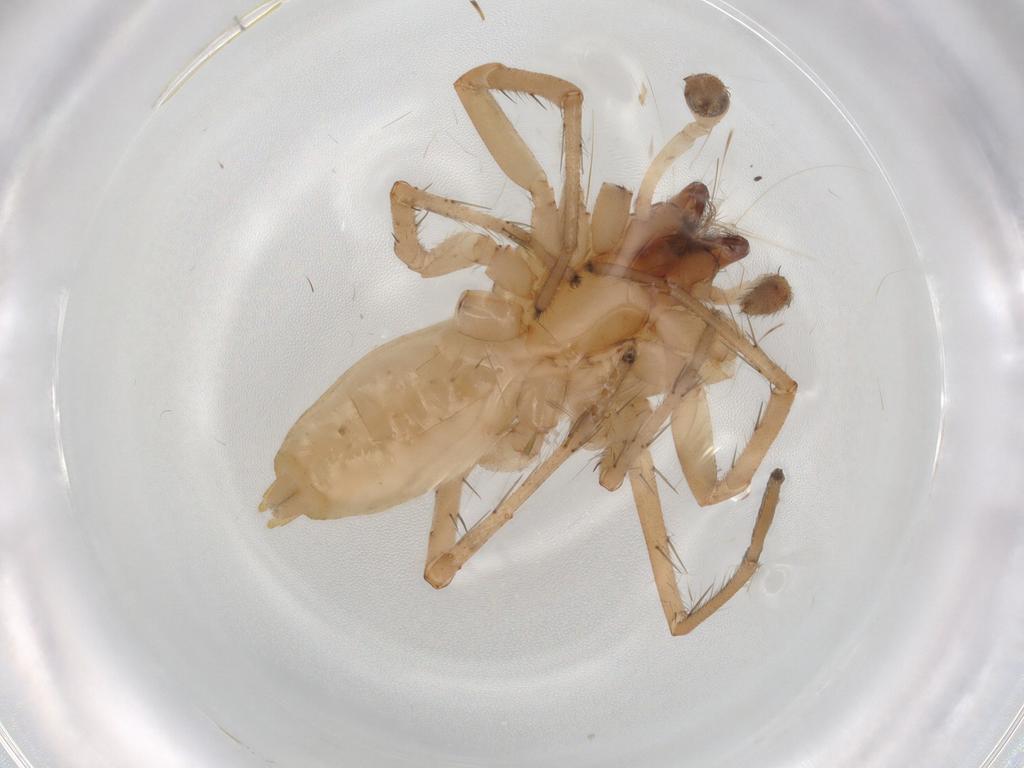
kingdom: Animalia
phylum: Arthropoda
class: Arachnida
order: Araneae
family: Anyphaenidae
